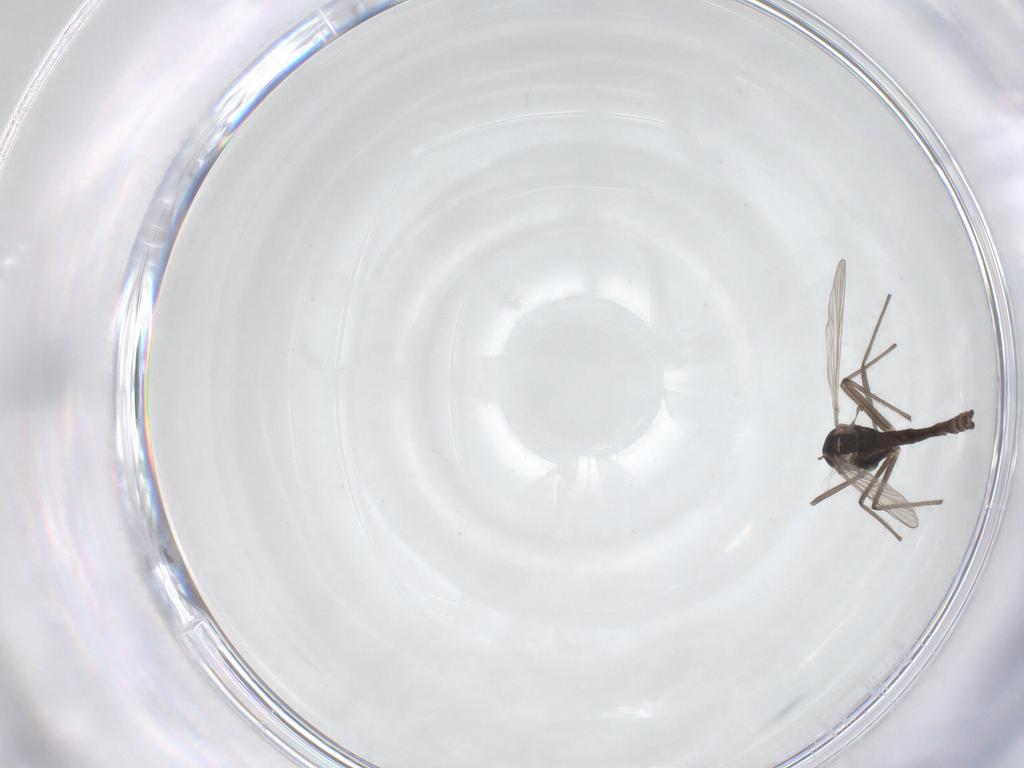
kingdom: Animalia
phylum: Arthropoda
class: Insecta
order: Diptera
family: Chironomidae
